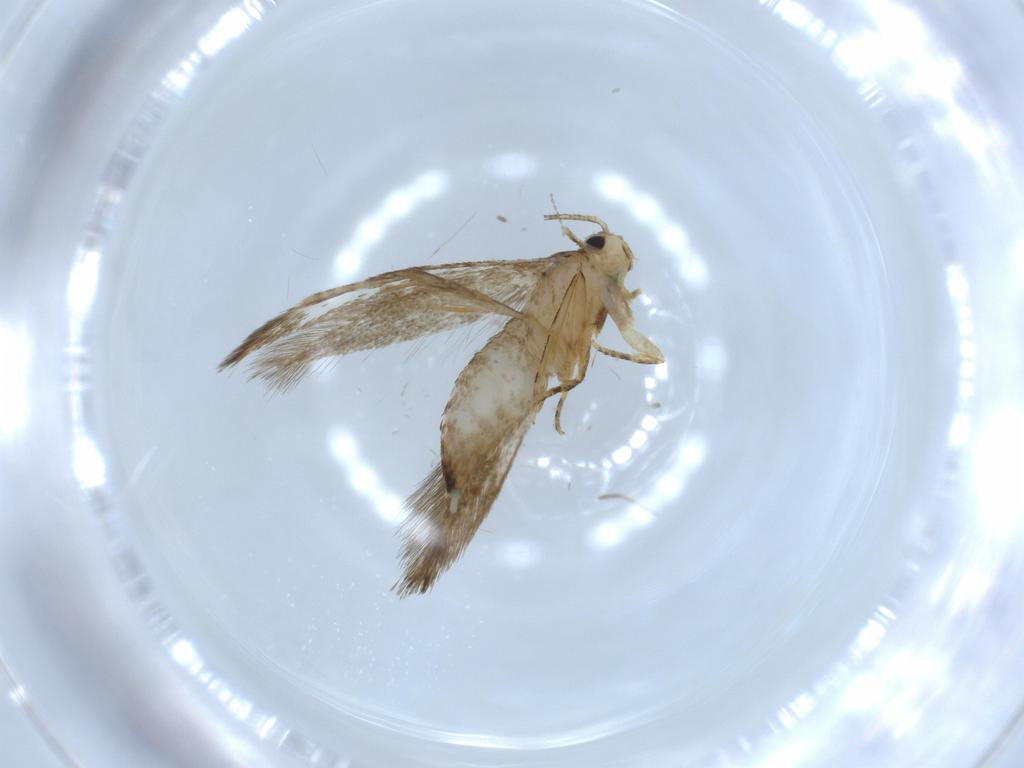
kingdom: Animalia
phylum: Arthropoda
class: Insecta
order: Lepidoptera
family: Tineidae
